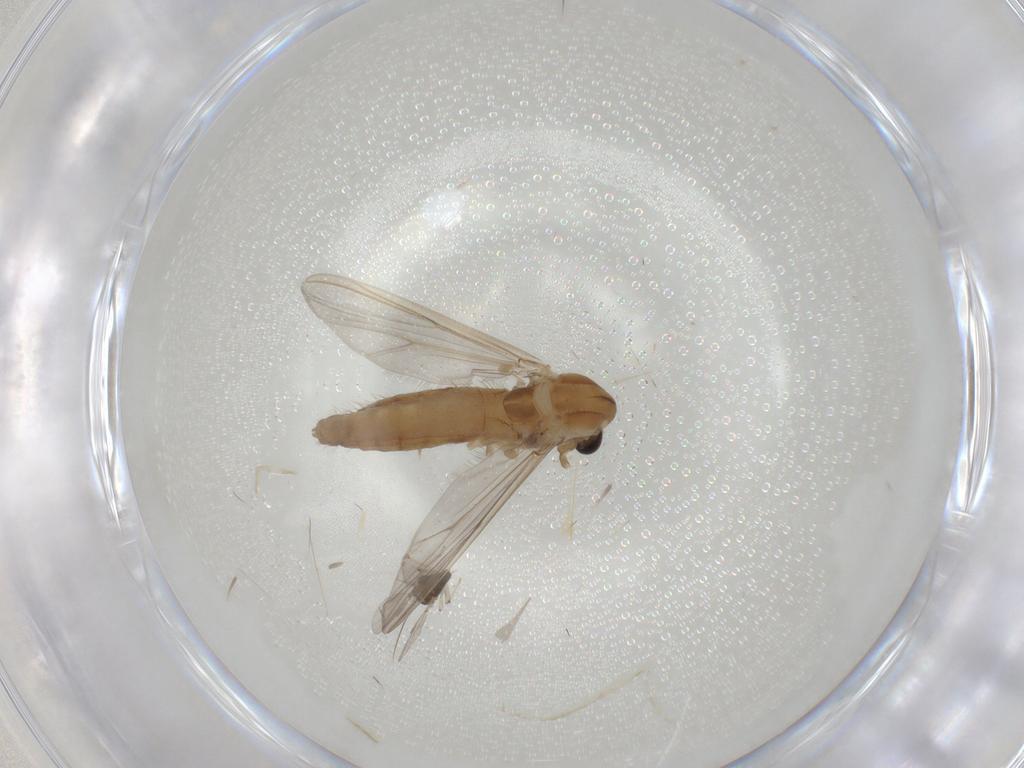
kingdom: Animalia
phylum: Arthropoda
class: Insecta
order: Diptera
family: Chironomidae
